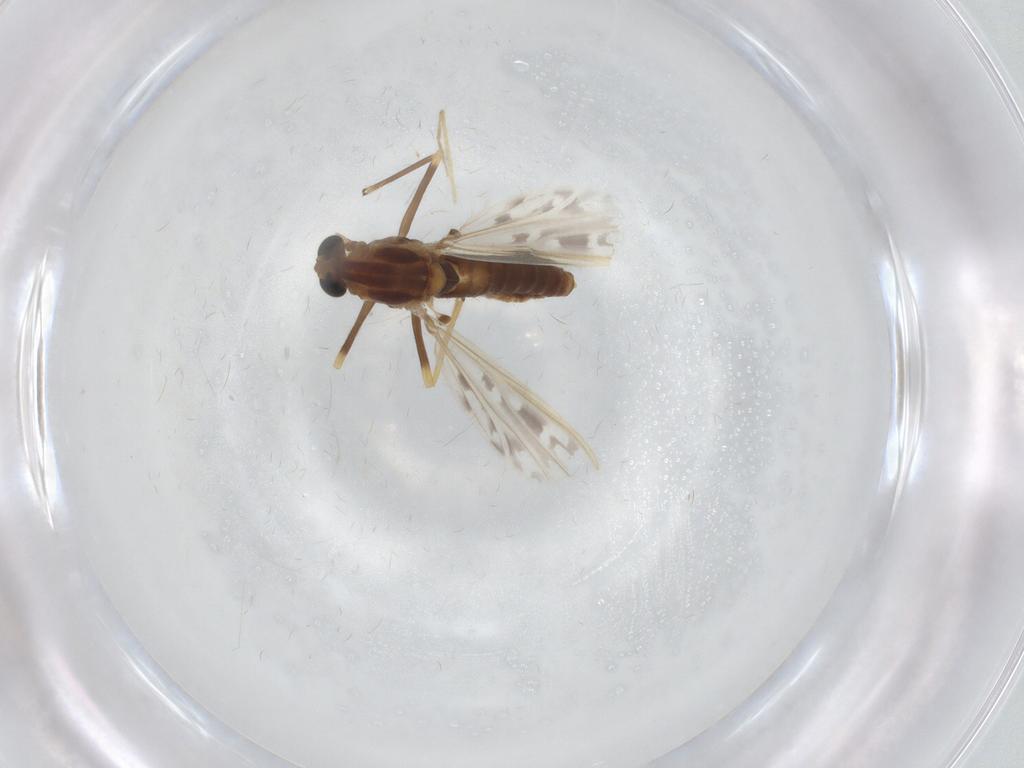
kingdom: Animalia
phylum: Arthropoda
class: Insecta
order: Diptera
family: Chironomidae
